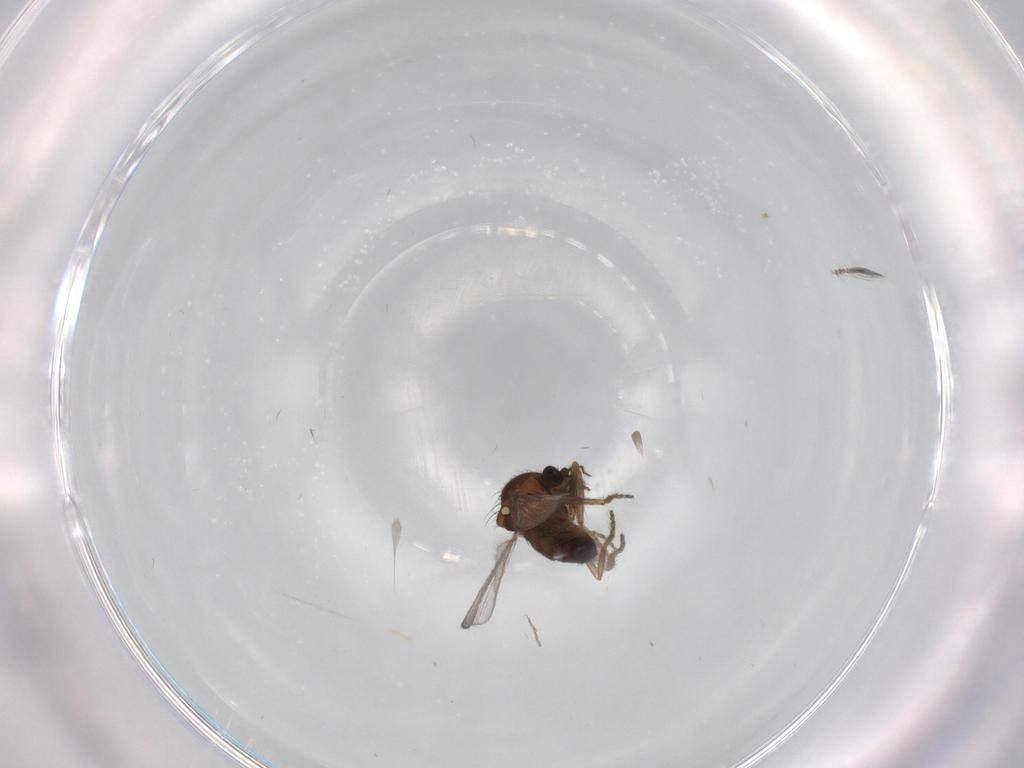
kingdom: Animalia
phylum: Arthropoda
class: Insecta
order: Diptera
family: Ceratopogonidae
